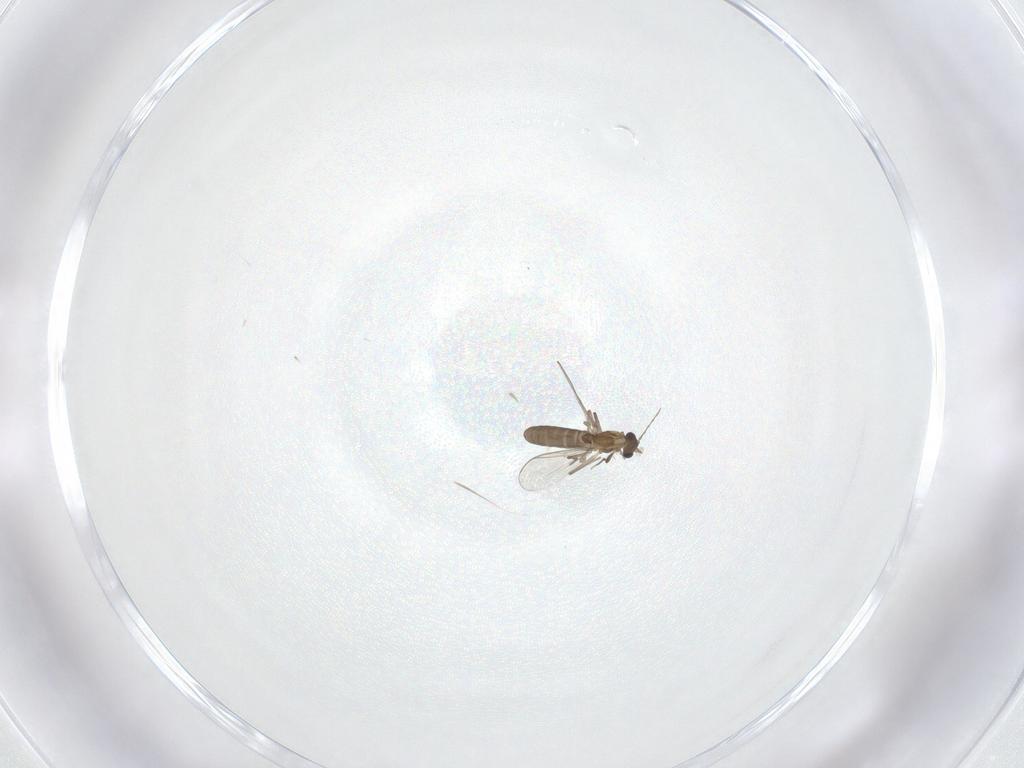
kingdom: Animalia
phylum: Arthropoda
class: Insecta
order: Diptera
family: Chironomidae
